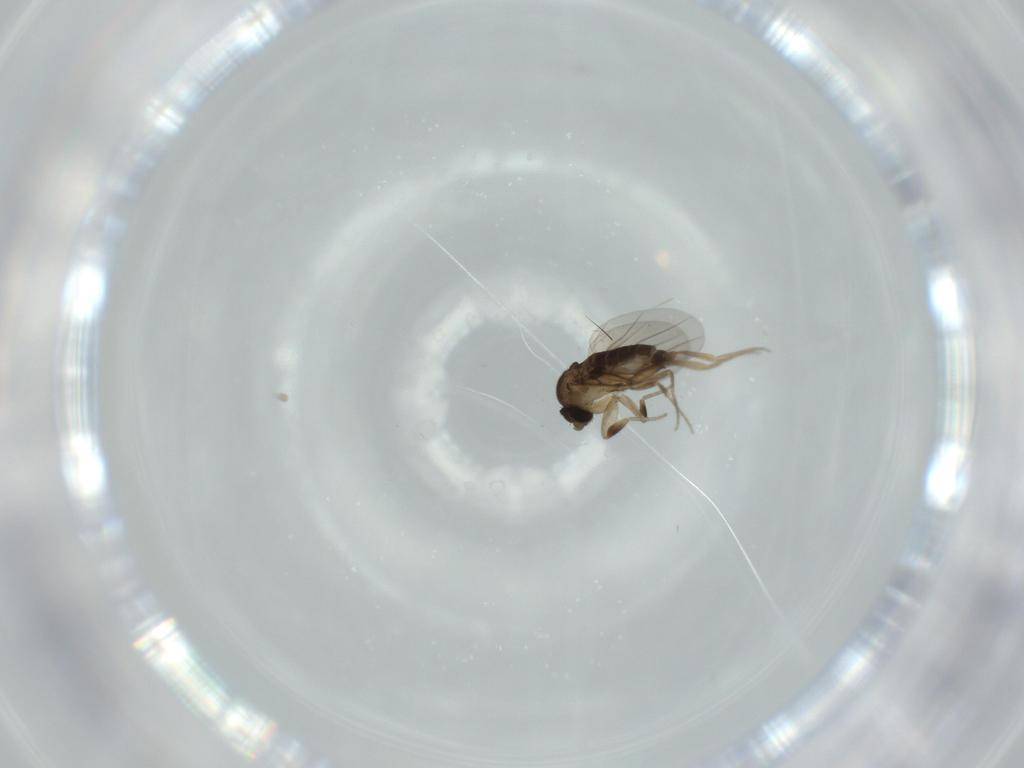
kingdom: Animalia
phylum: Arthropoda
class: Insecta
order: Diptera
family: Phoridae
